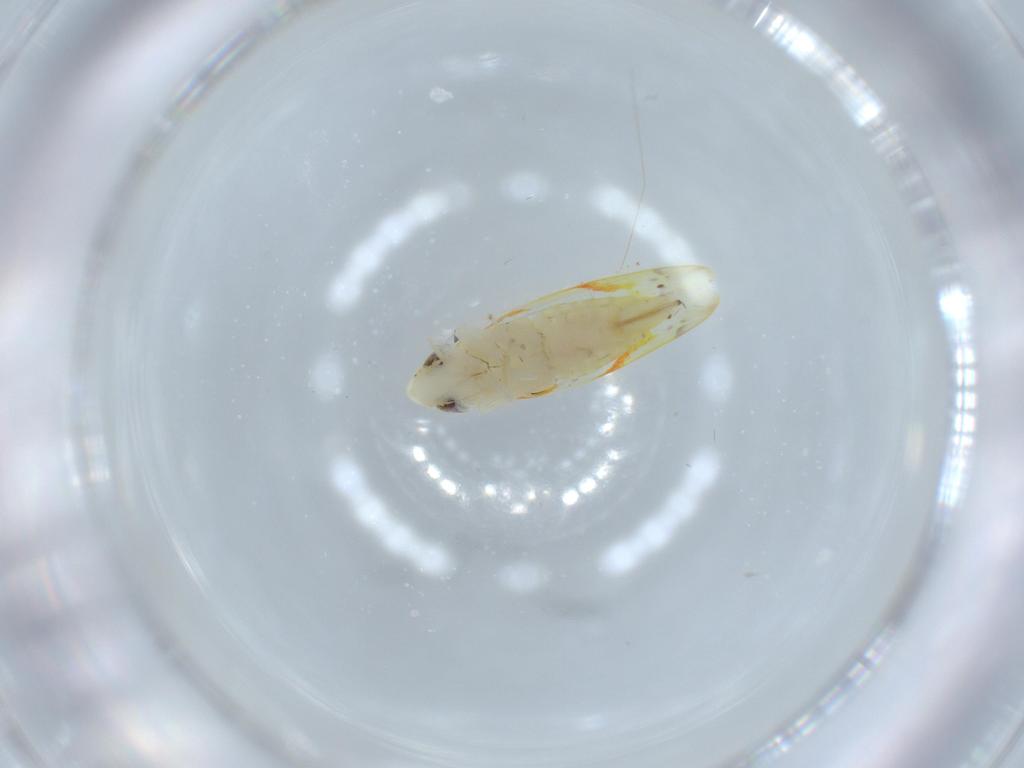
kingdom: Animalia
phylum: Arthropoda
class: Insecta
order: Hemiptera
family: Cicadellidae
